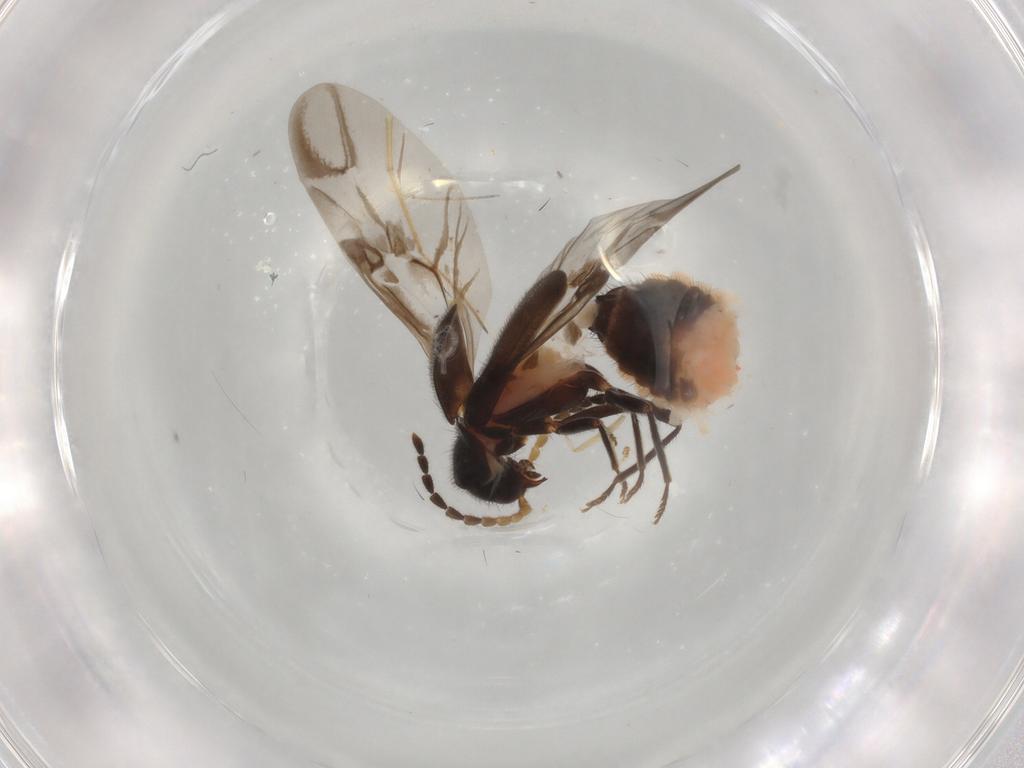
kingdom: Animalia
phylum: Arthropoda
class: Insecta
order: Coleoptera
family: Melyridae
